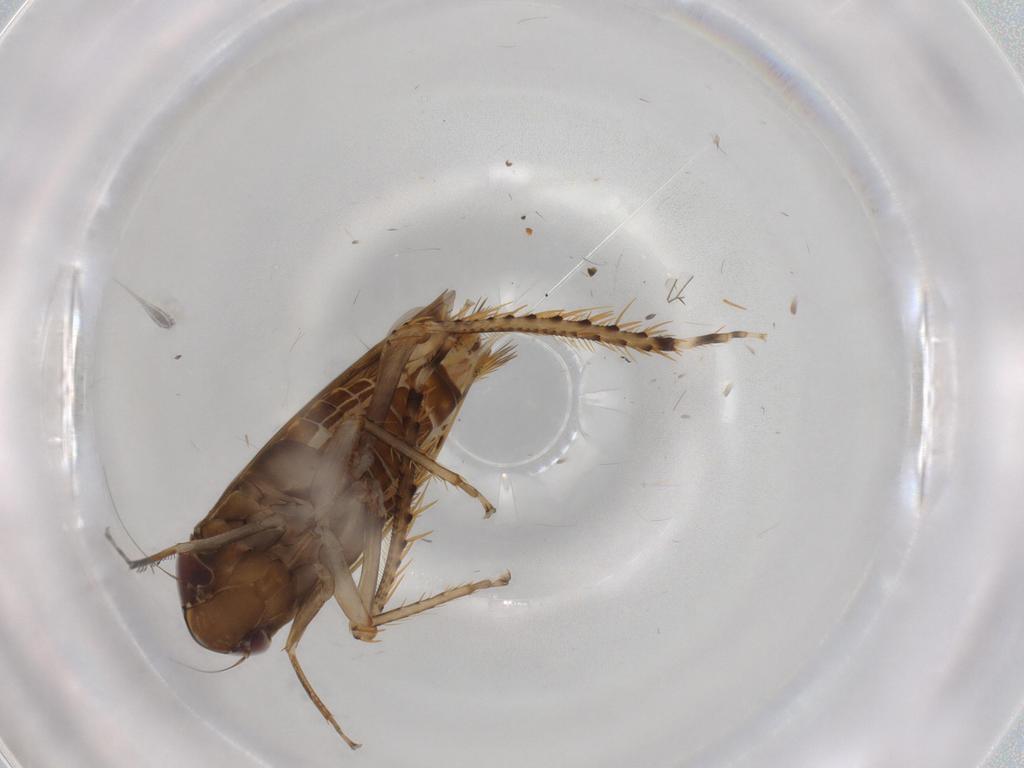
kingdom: Animalia
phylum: Arthropoda
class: Insecta
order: Hemiptera
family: Cicadellidae
